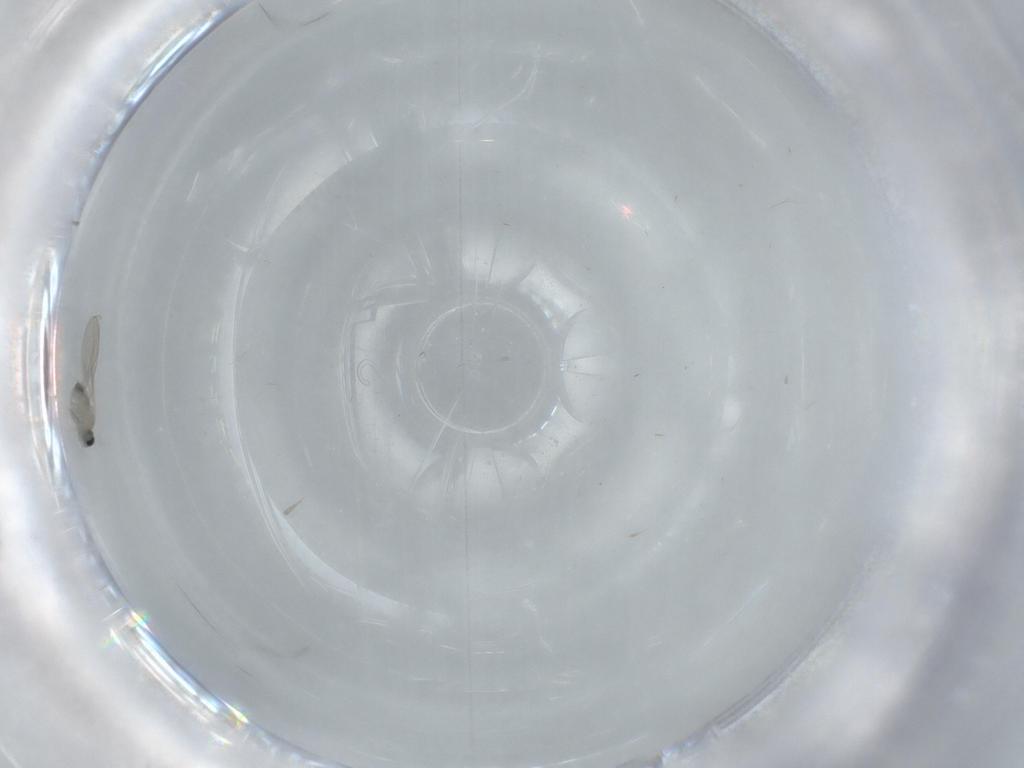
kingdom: Animalia
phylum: Arthropoda
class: Insecta
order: Diptera
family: Cecidomyiidae
